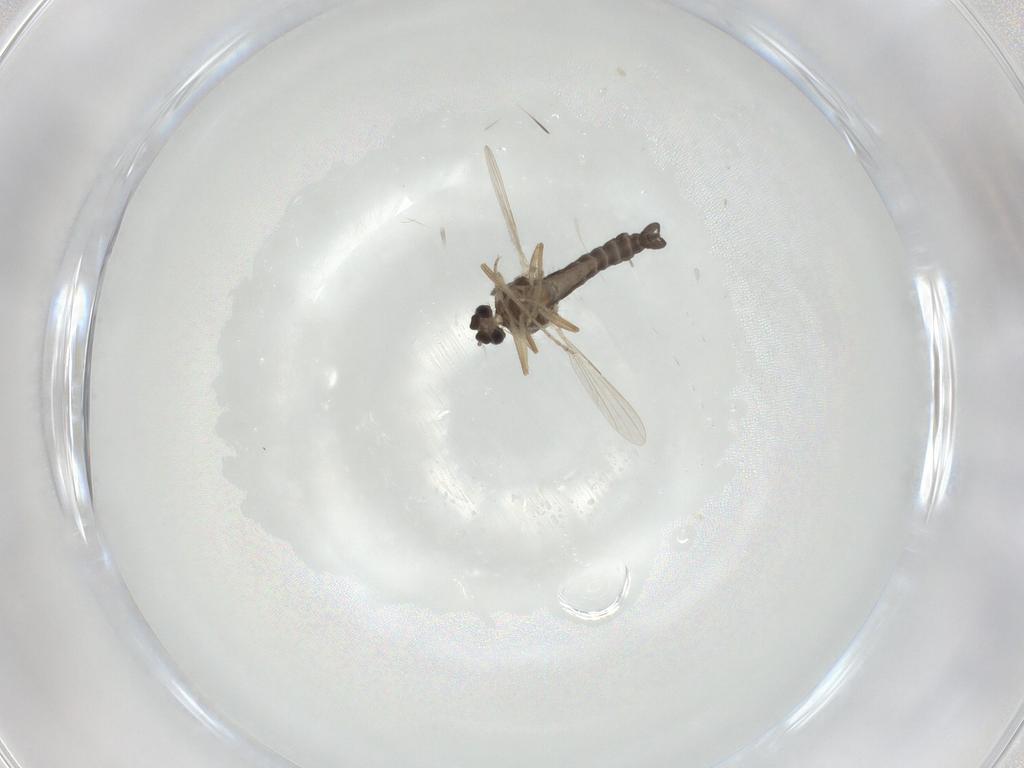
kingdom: Animalia
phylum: Arthropoda
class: Insecta
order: Diptera
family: Ceratopogonidae
